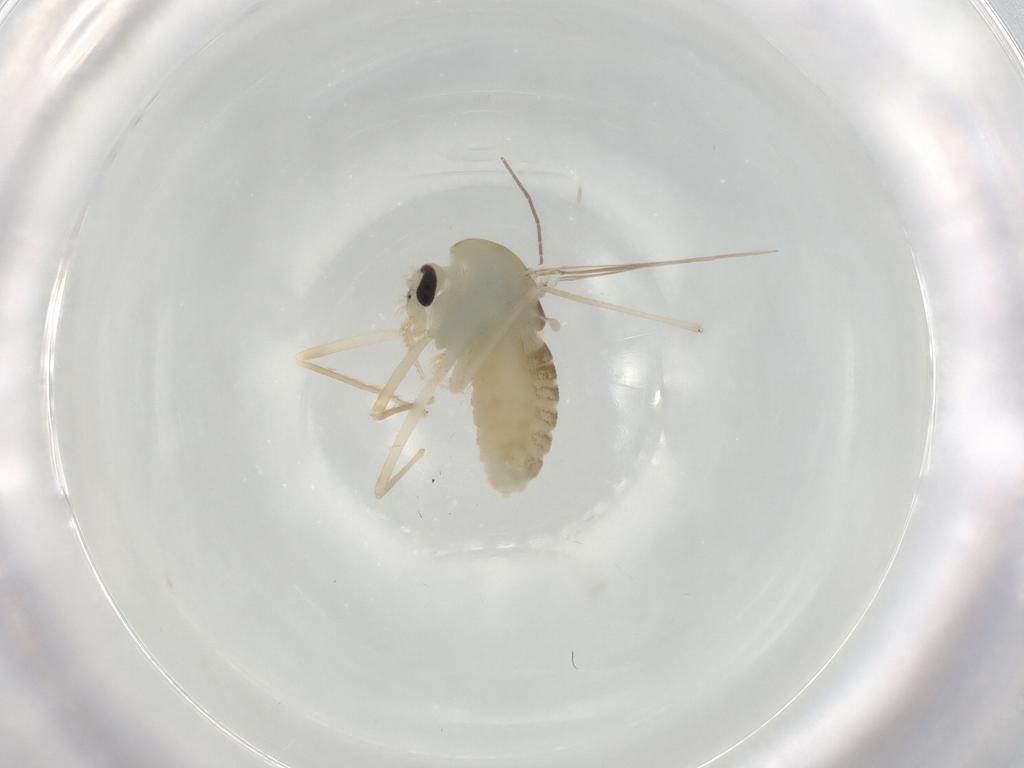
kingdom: Animalia
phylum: Arthropoda
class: Insecta
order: Diptera
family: Chironomidae
